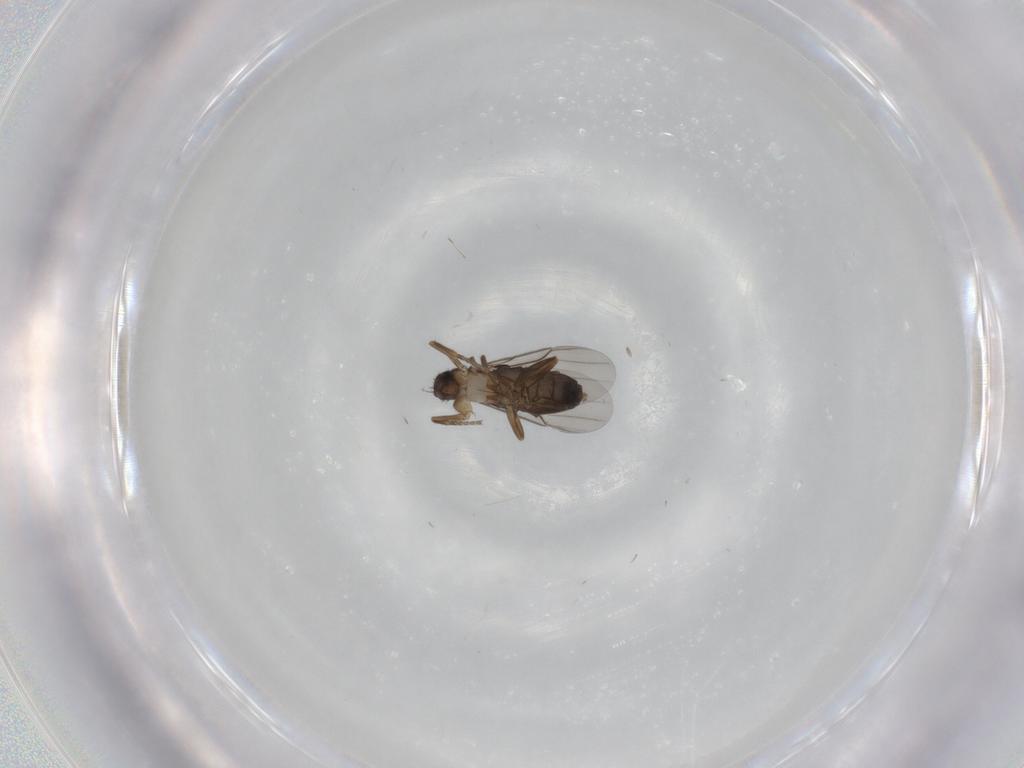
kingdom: Animalia
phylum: Arthropoda
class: Insecta
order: Diptera
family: Phoridae
